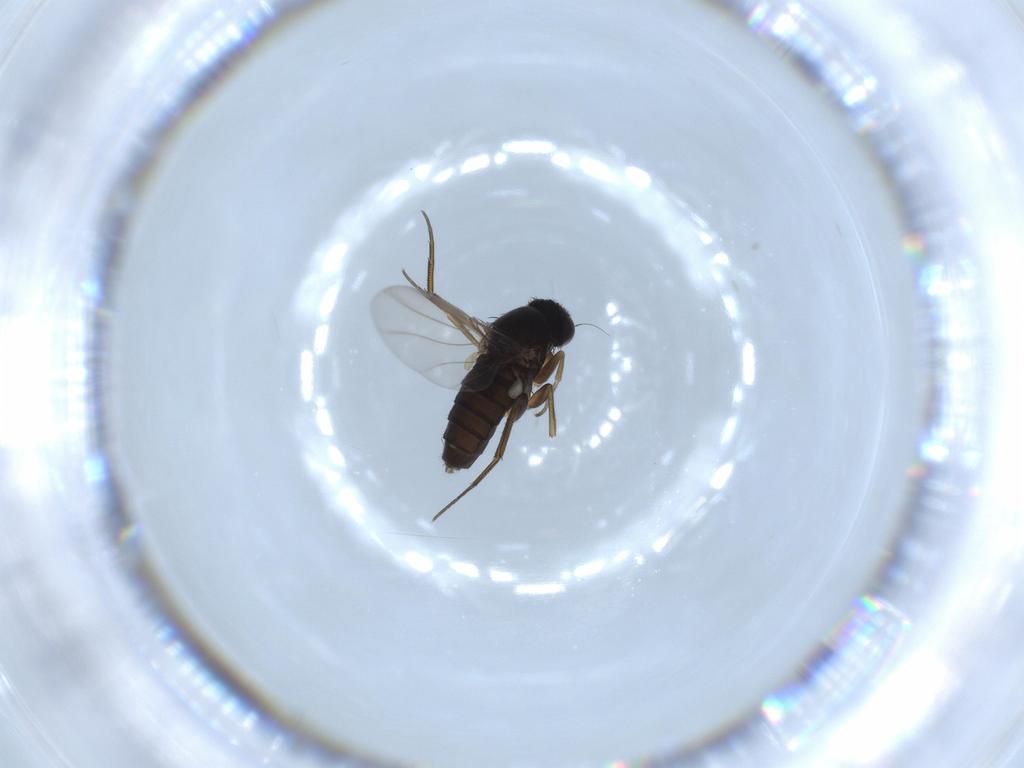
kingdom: Animalia
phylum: Arthropoda
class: Insecta
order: Diptera
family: Phoridae
